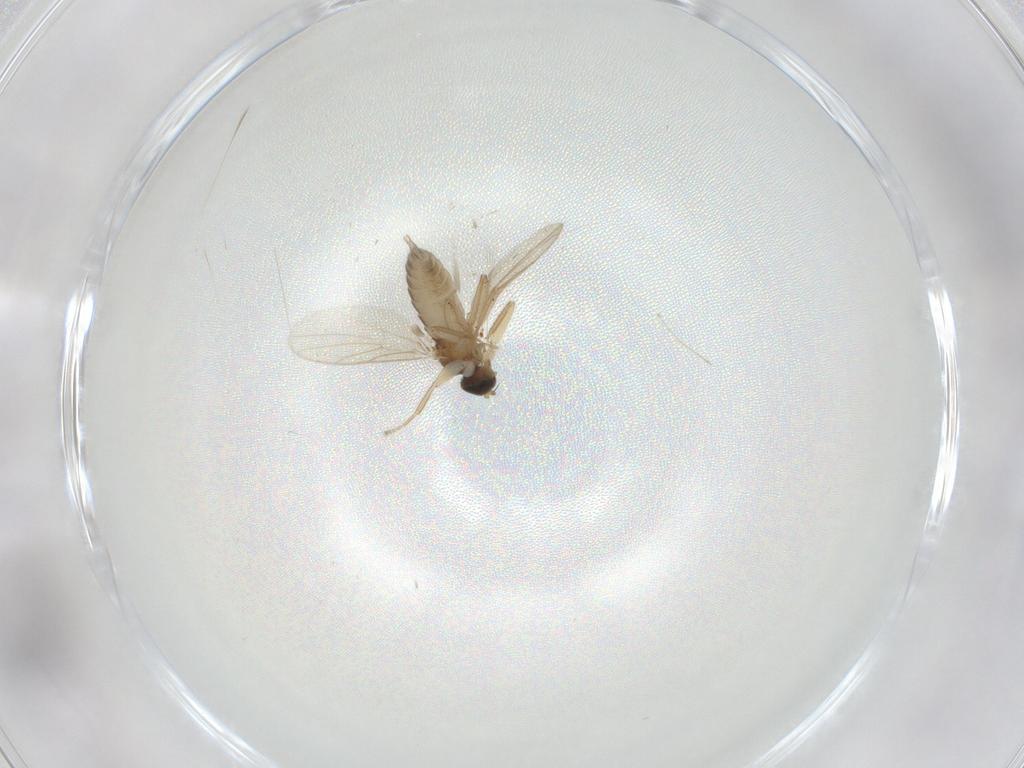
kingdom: Animalia
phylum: Arthropoda
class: Insecta
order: Diptera
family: Hybotidae
